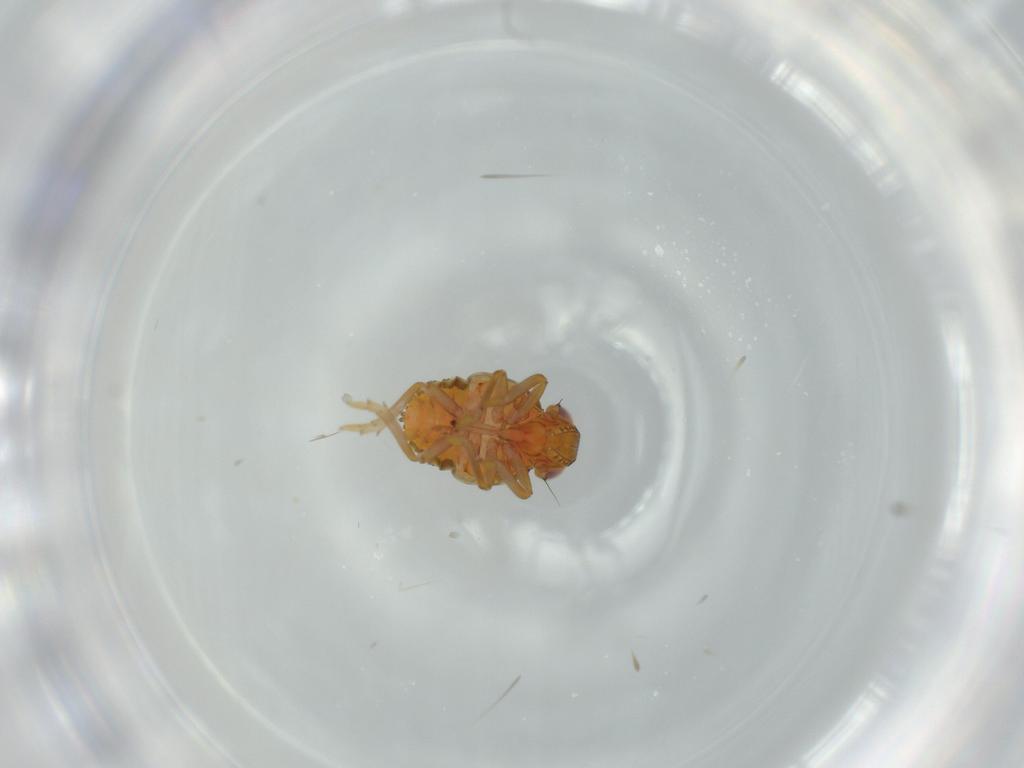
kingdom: Animalia
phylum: Arthropoda
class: Insecta
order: Hemiptera
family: Issidae
